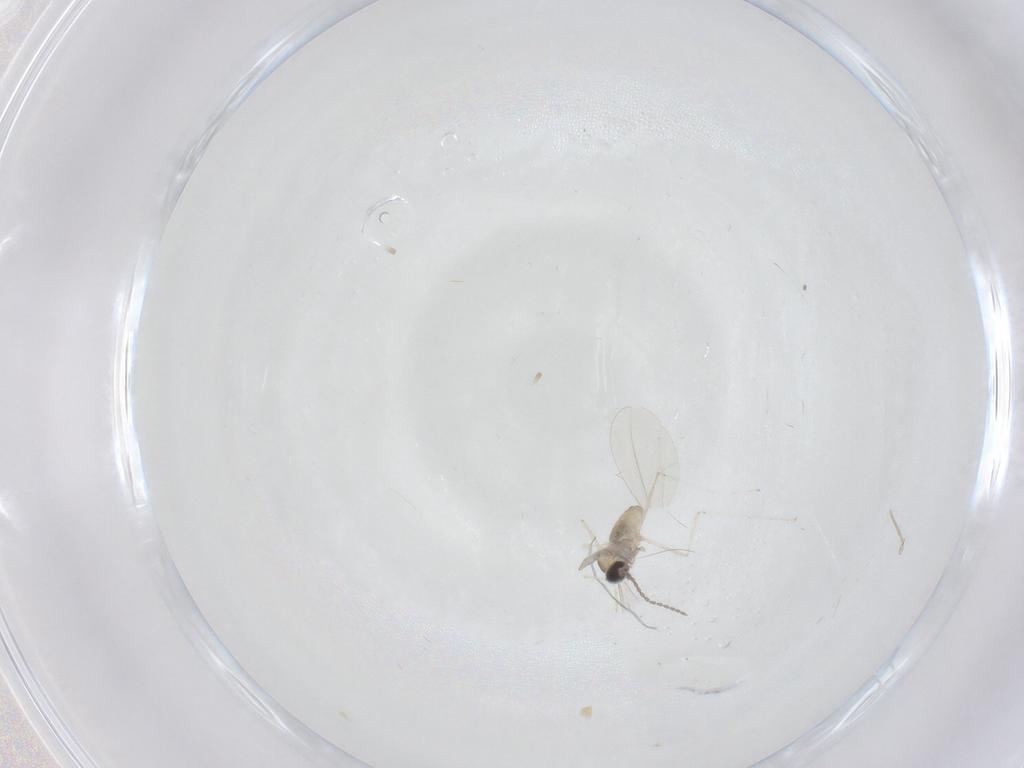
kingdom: Animalia
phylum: Arthropoda
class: Insecta
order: Diptera
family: Cecidomyiidae
